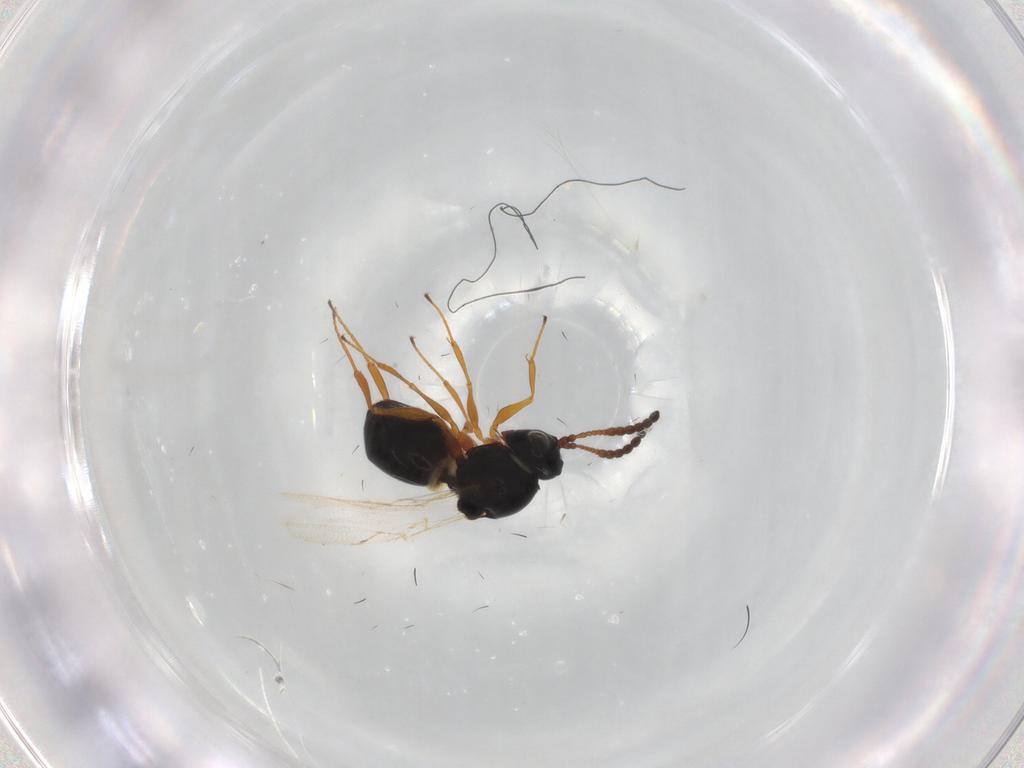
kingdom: Animalia
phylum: Arthropoda
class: Insecta
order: Hymenoptera
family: Figitidae
